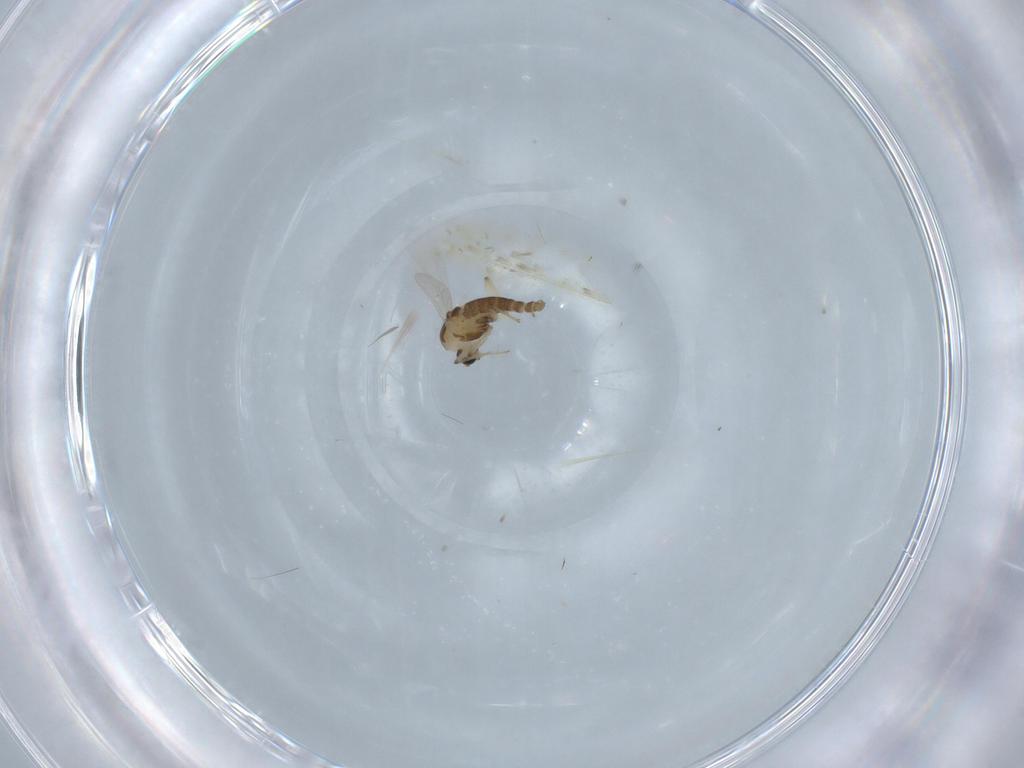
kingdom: Animalia
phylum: Arthropoda
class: Insecta
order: Diptera
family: Chironomidae
